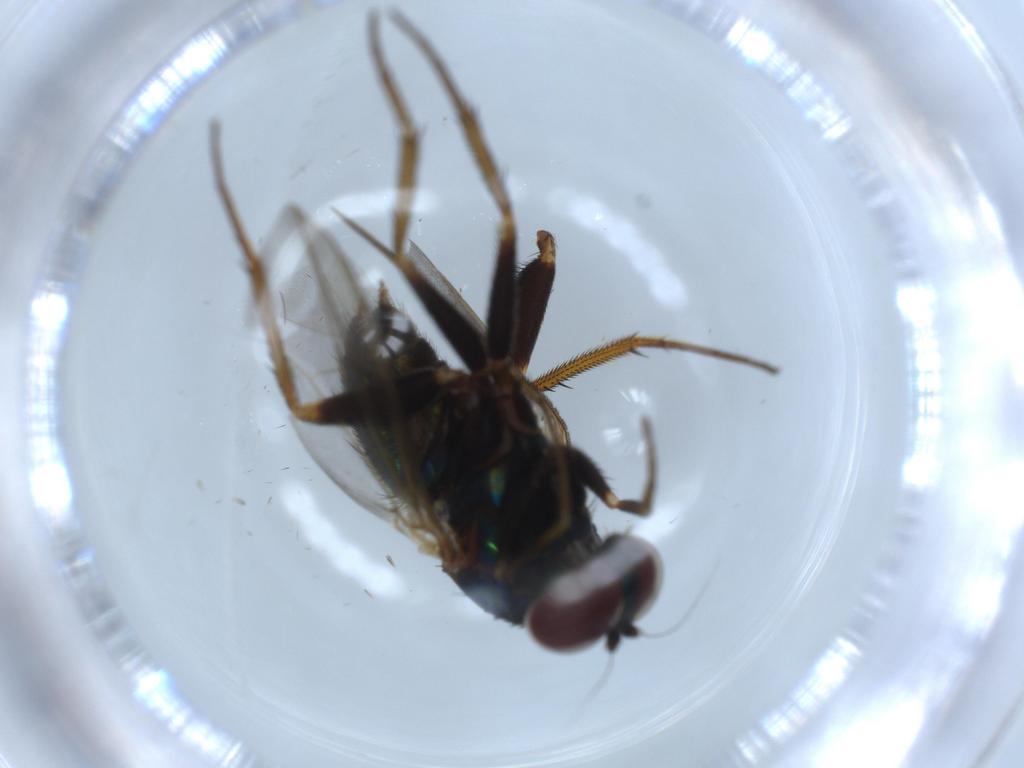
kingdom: Animalia
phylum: Arthropoda
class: Insecta
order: Diptera
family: Dolichopodidae
